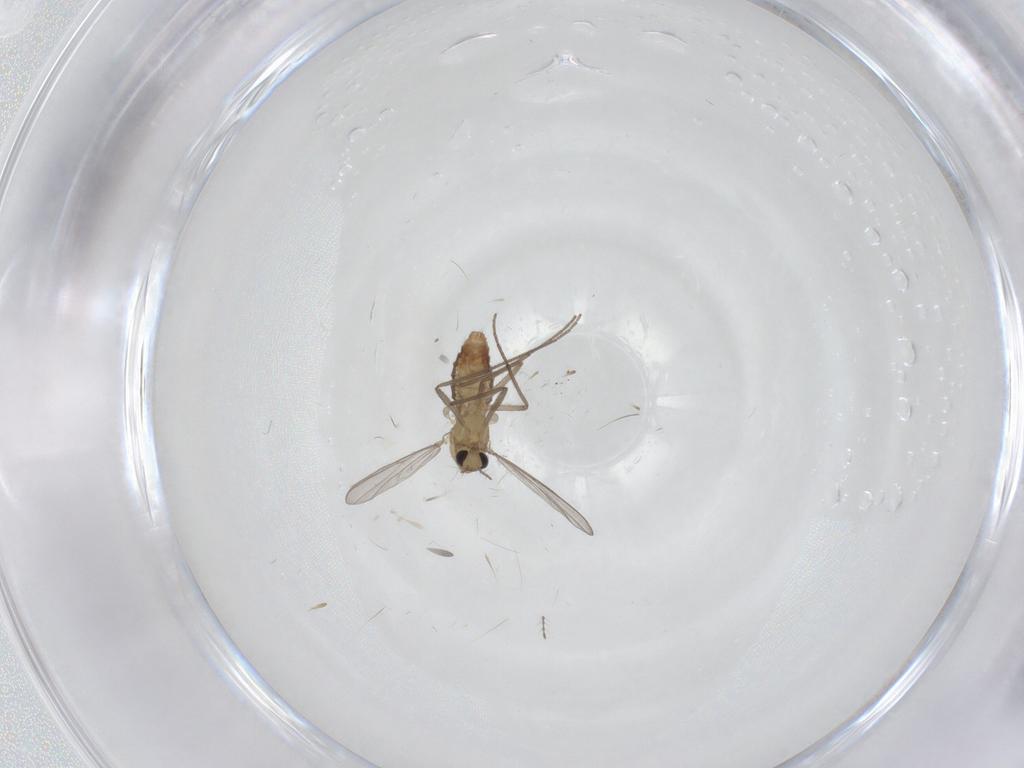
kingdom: Animalia
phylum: Arthropoda
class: Insecta
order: Diptera
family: Chironomidae
